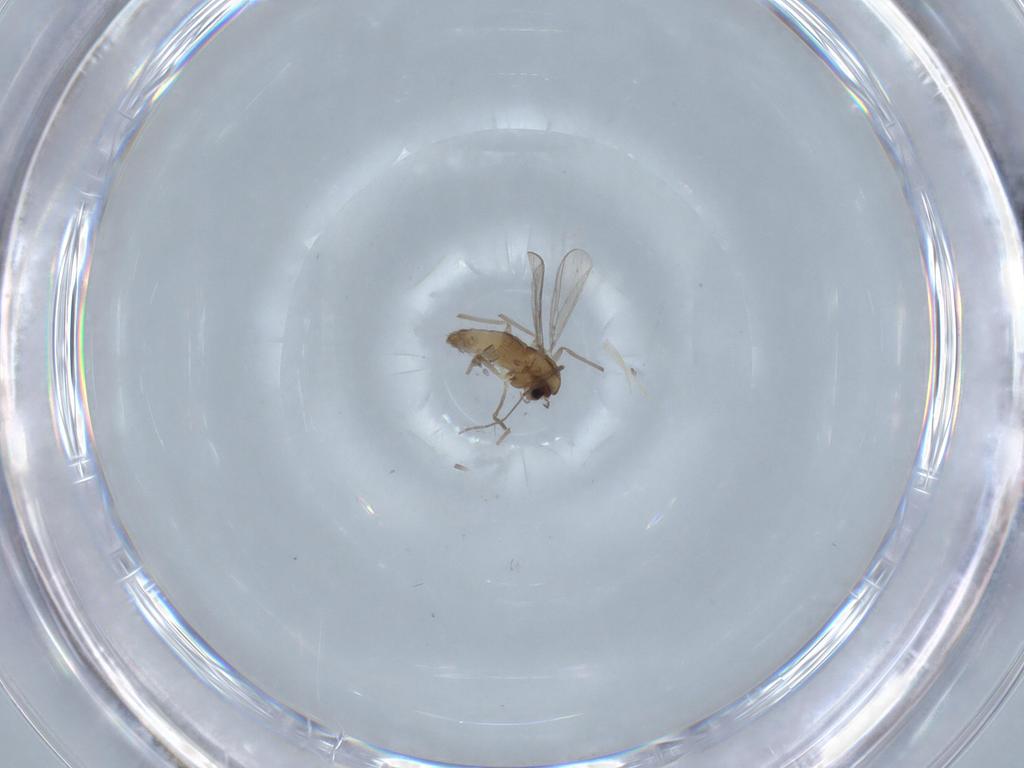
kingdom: Animalia
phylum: Arthropoda
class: Insecta
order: Diptera
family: Chironomidae
